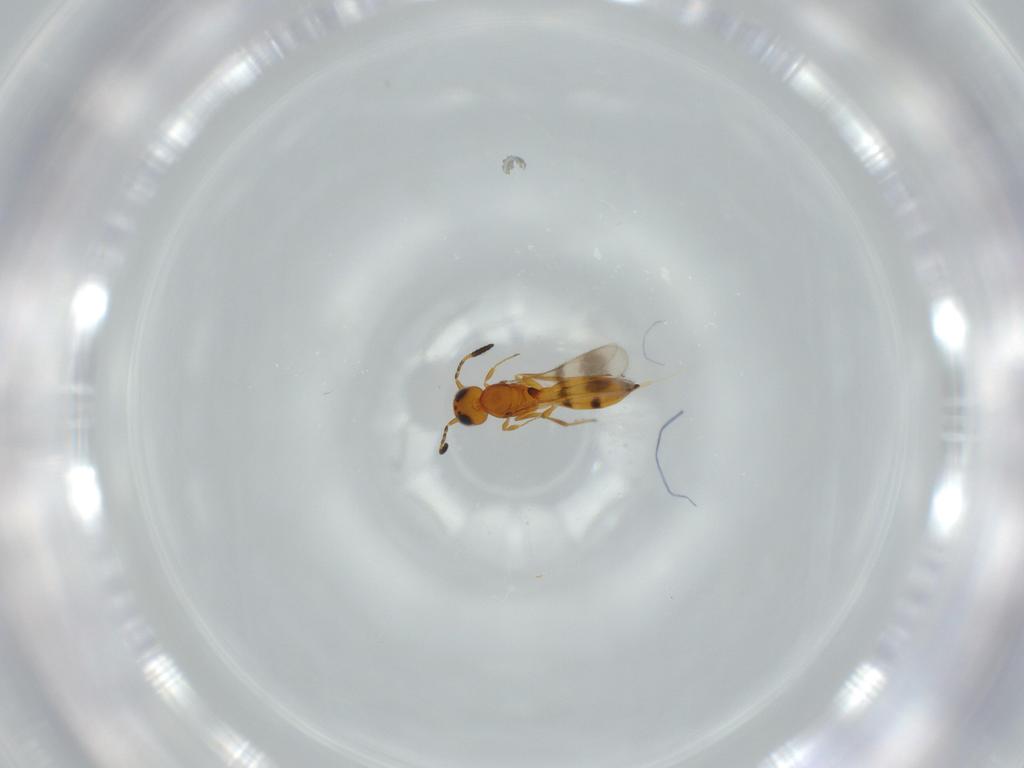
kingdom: Animalia
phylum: Arthropoda
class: Insecta
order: Hymenoptera
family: Scelionidae
